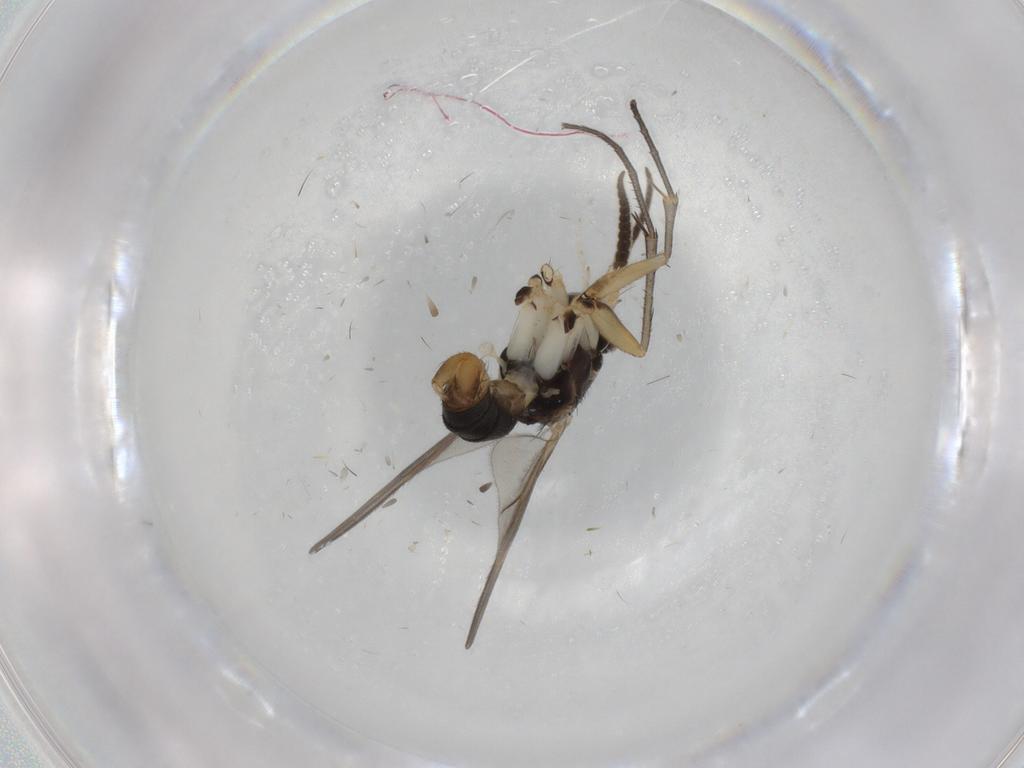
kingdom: Animalia
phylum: Arthropoda
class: Insecta
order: Diptera
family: Mycetophilidae
